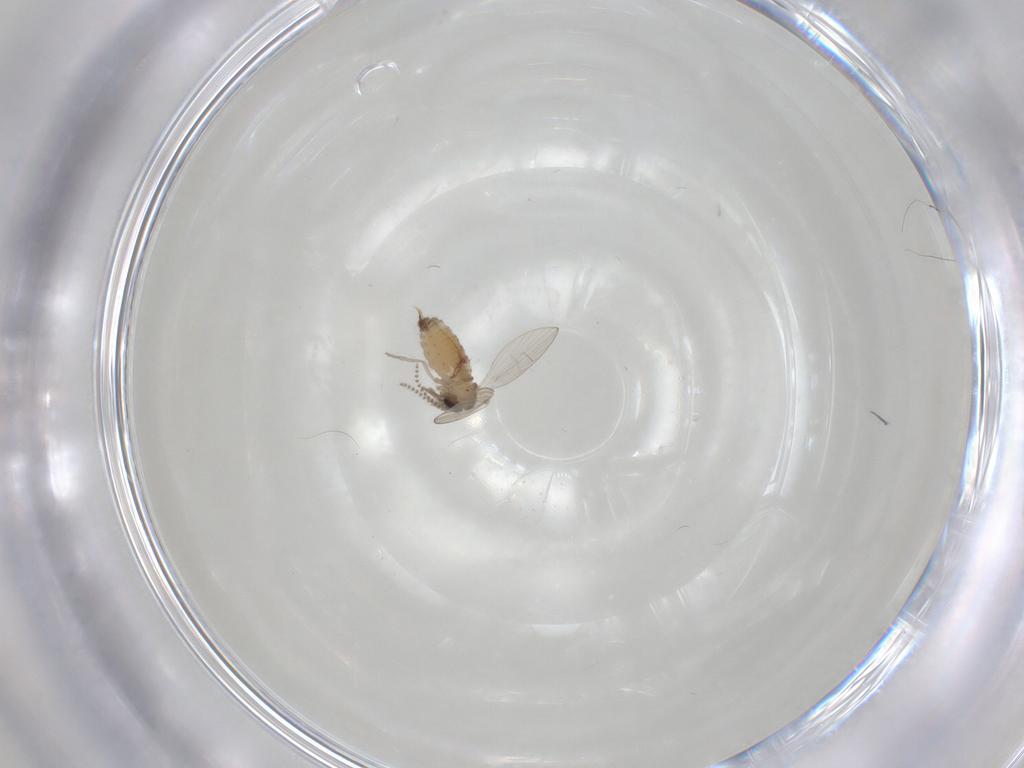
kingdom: Animalia
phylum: Arthropoda
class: Insecta
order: Diptera
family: Psychodidae
